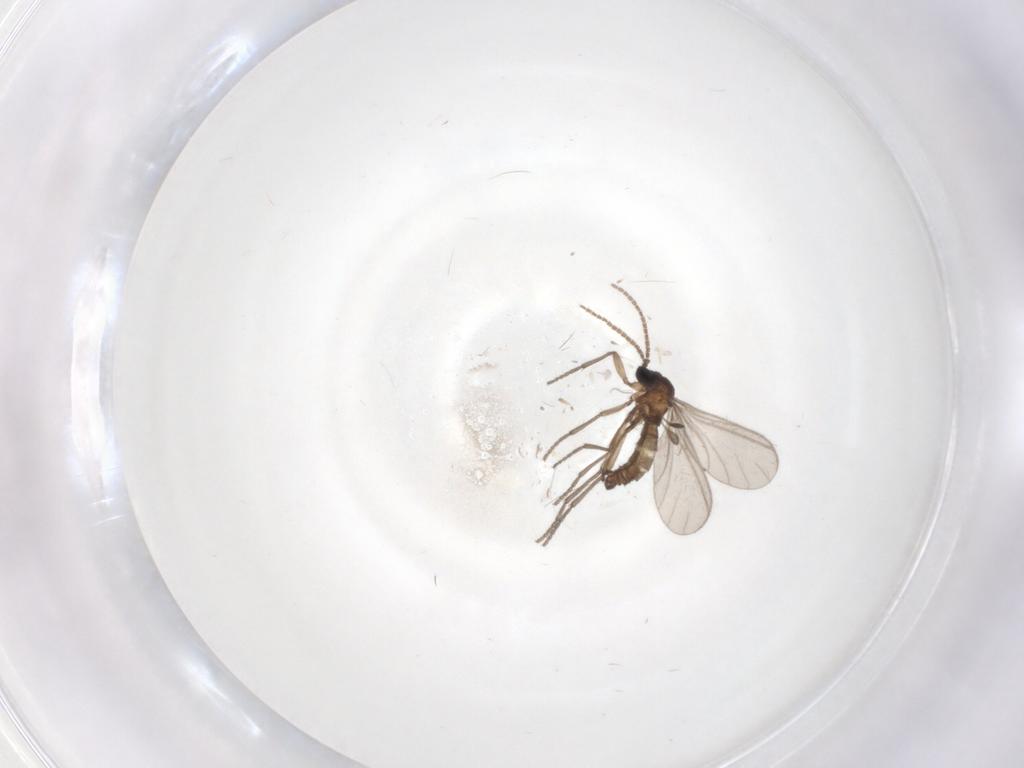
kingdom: Animalia
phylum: Arthropoda
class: Insecta
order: Diptera
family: Sciaridae
